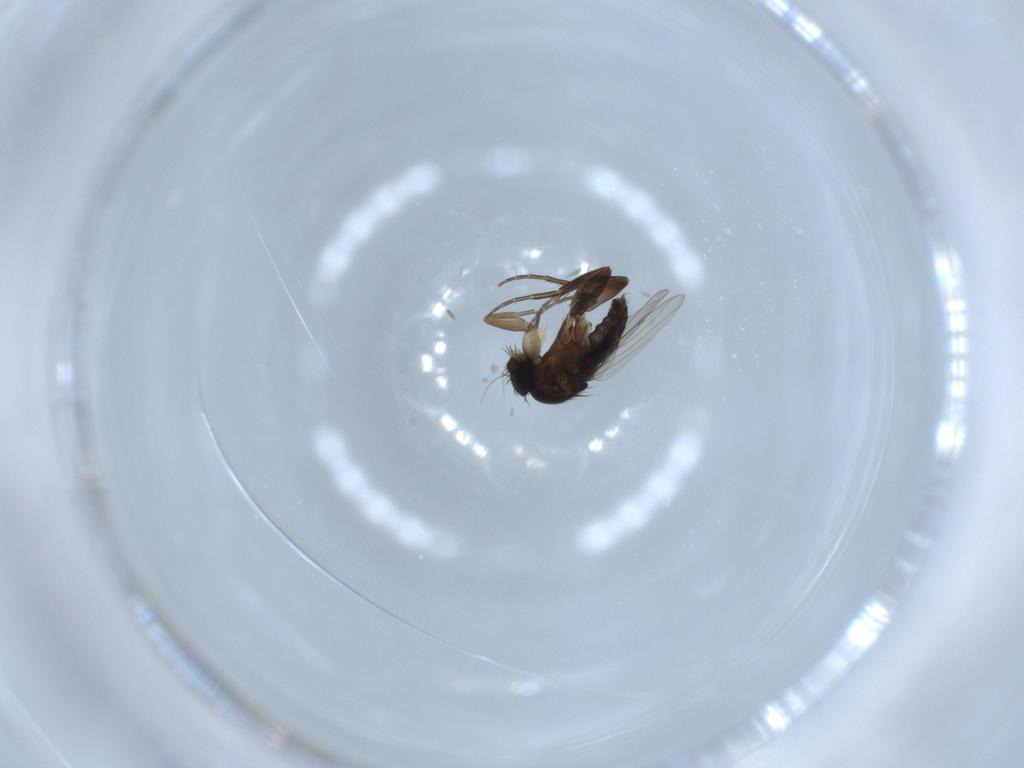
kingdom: Animalia
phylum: Arthropoda
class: Insecta
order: Diptera
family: Phoridae
